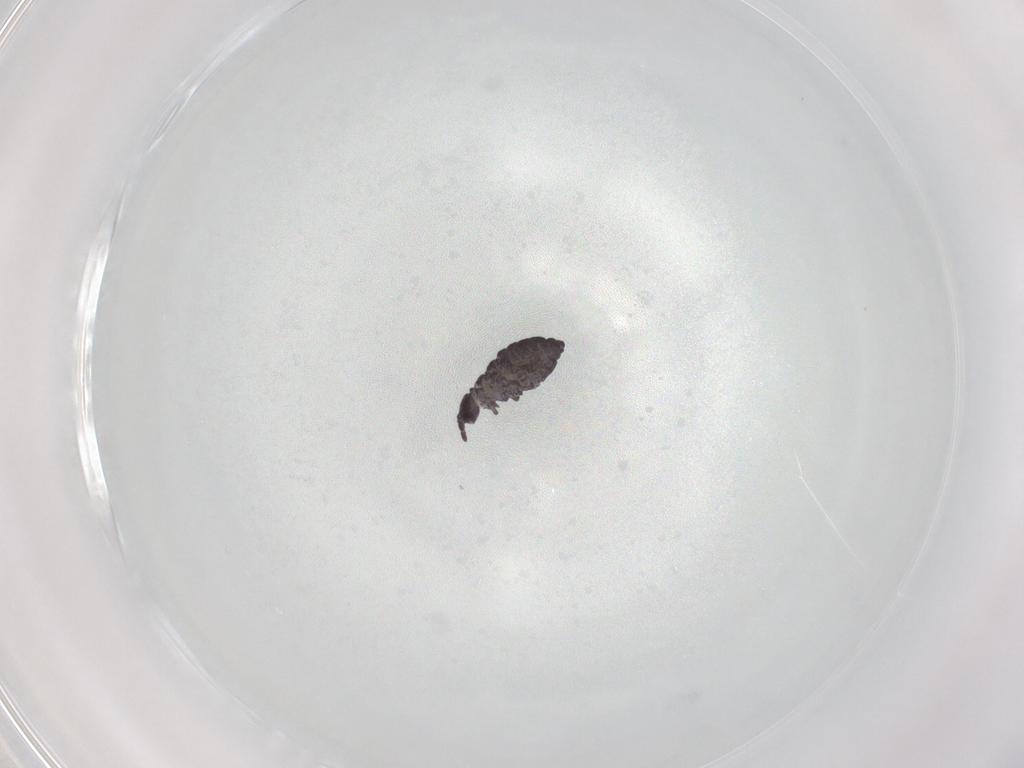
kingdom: Animalia
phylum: Arthropoda
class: Collembola
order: Poduromorpha
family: Hypogastruridae
